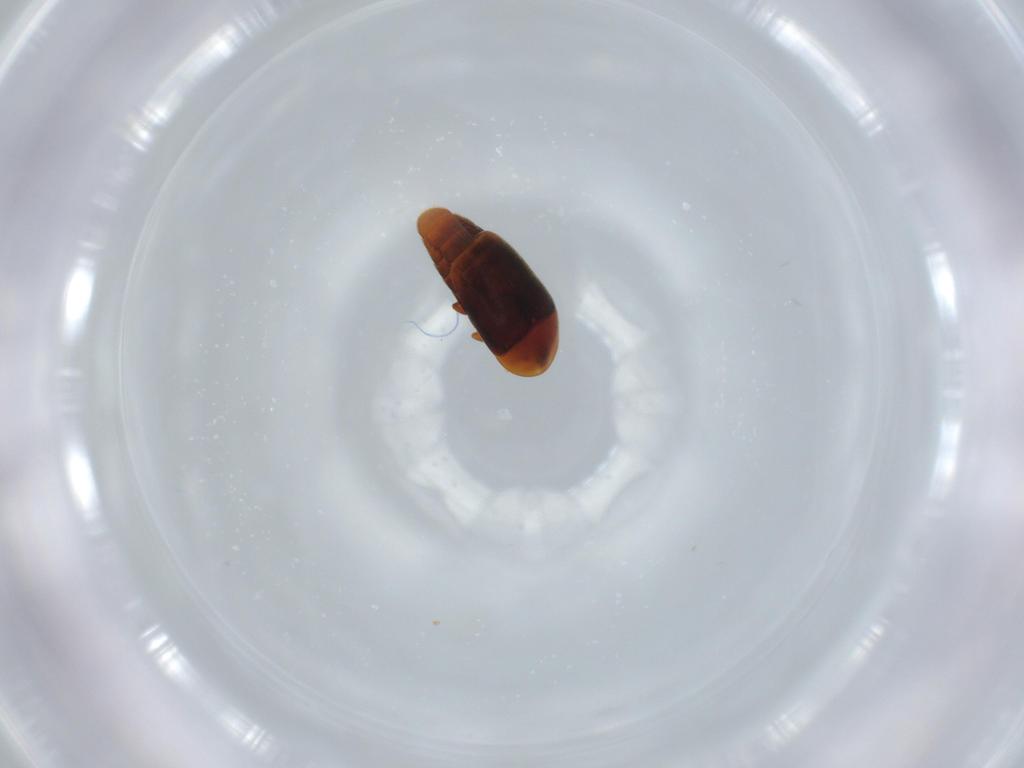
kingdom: Animalia
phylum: Arthropoda
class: Insecta
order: Coleoptera
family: Corylophidae
